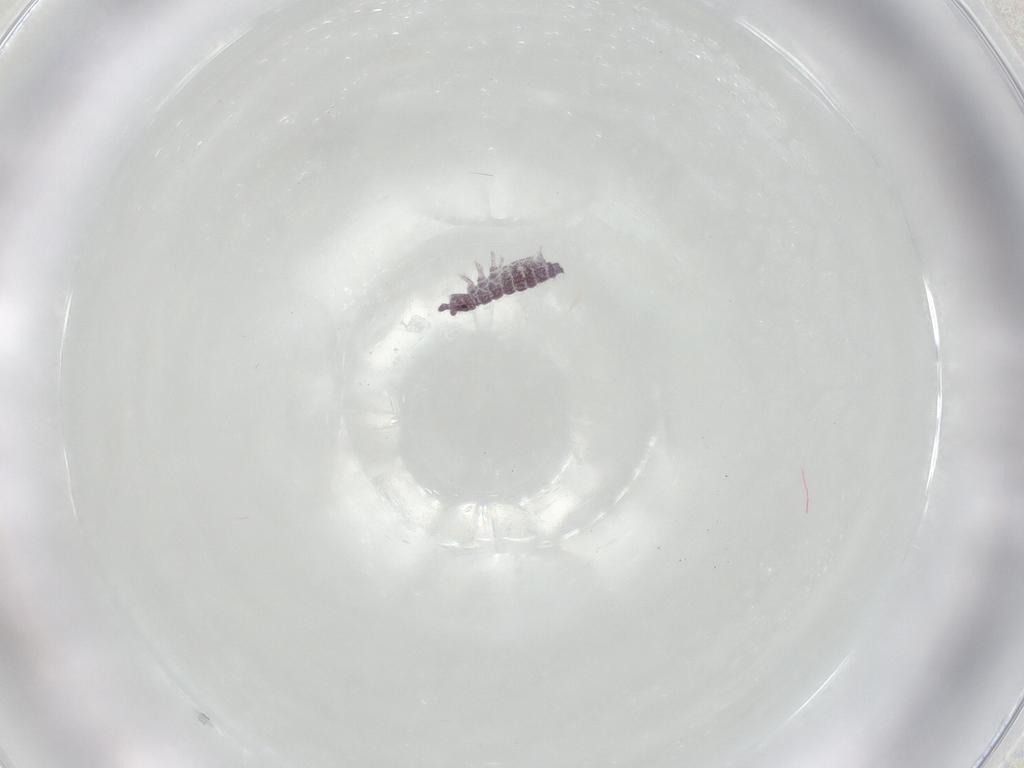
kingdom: Animalia
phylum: Arthropoda
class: Collembola
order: Poduromorpha
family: Hypogastruridae
